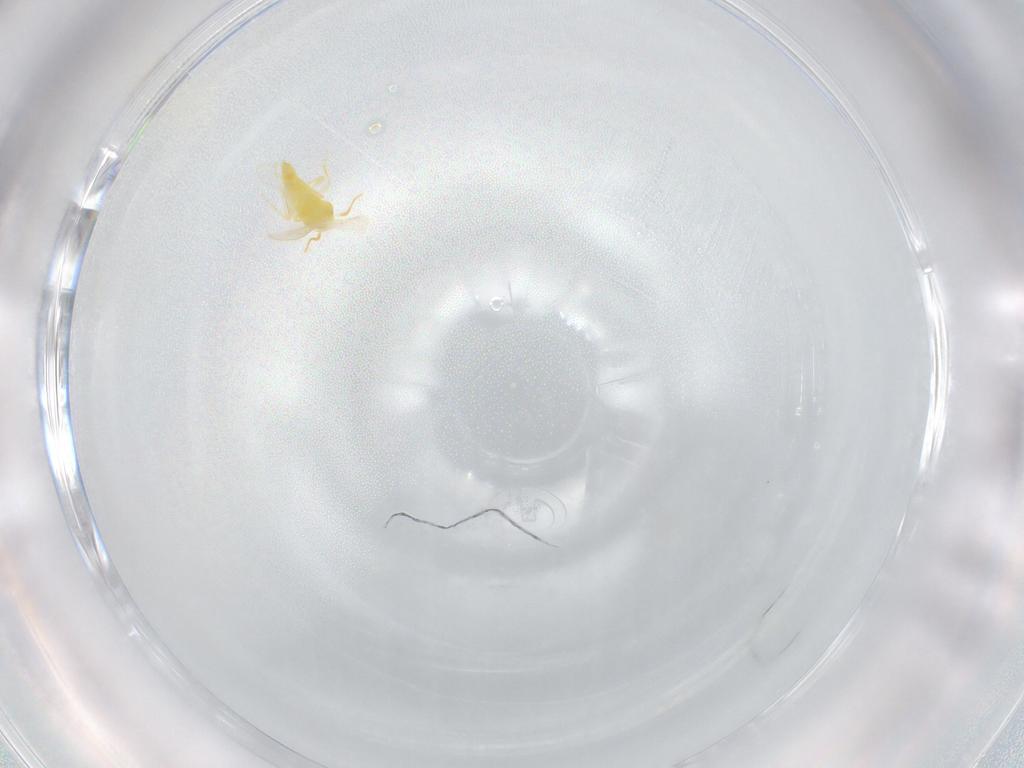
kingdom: Animalia
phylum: Arthropoda
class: Insecta
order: Hemiptera
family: Aleyrodidae
